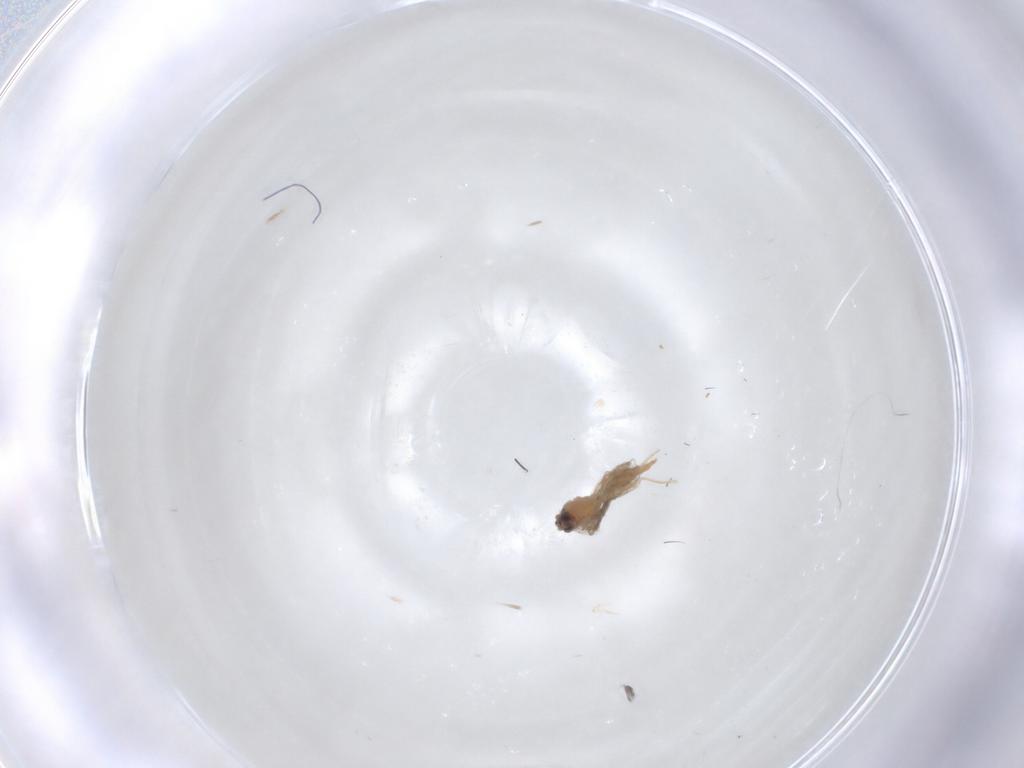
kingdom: Animalia
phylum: Arthropoda
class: Insecta
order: Diptera
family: Cecidomyiidae
